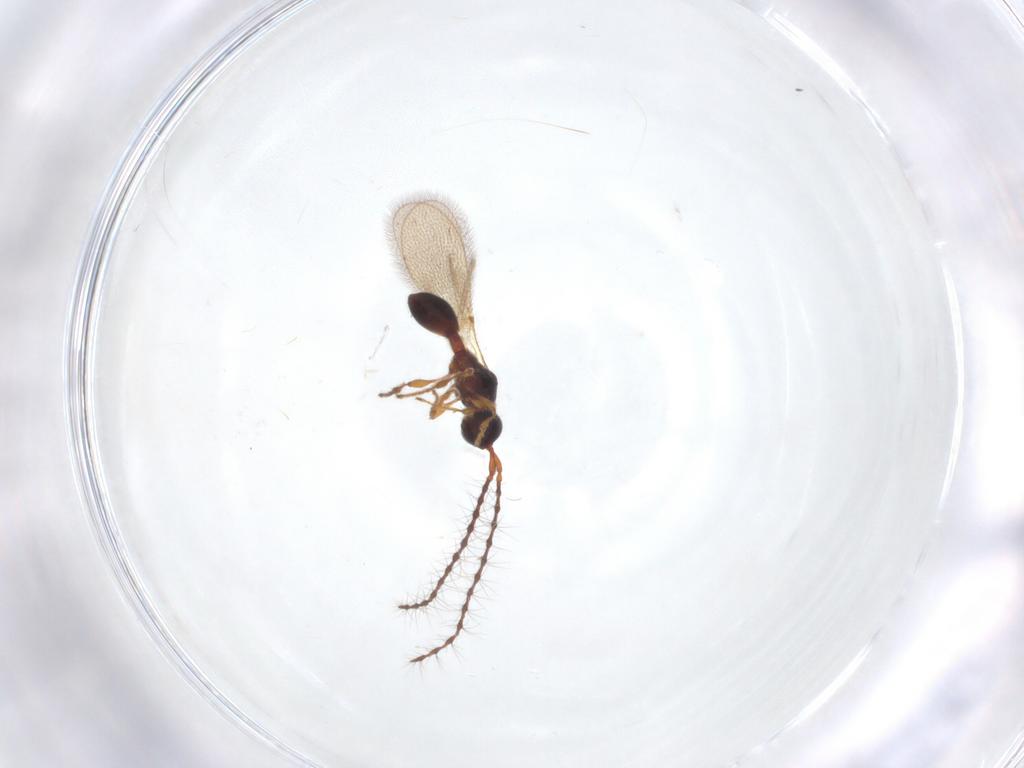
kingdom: Animalia
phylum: Arthropoda
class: Insecta
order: Hymenoptera
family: Diapriidae
